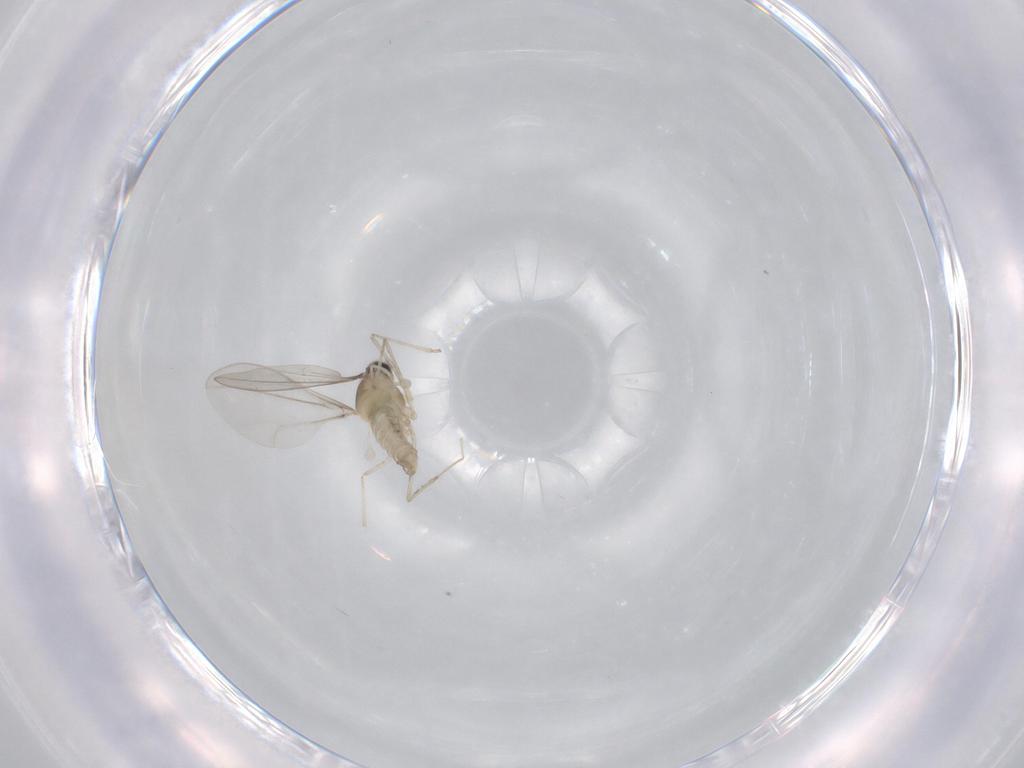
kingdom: Animalia
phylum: Arthropoda
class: Insecta
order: Diptera
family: Cecidomyiidae
